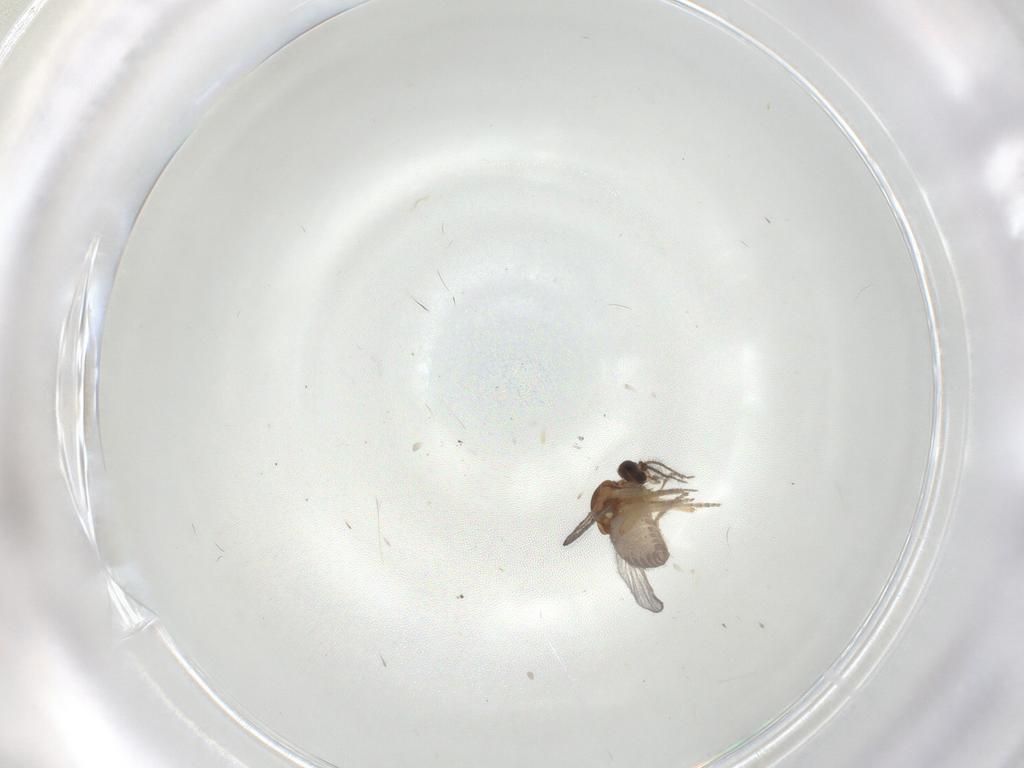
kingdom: Animalia
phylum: Arthropoda
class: Insecta
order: Diptera
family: Ceratopogonidae
